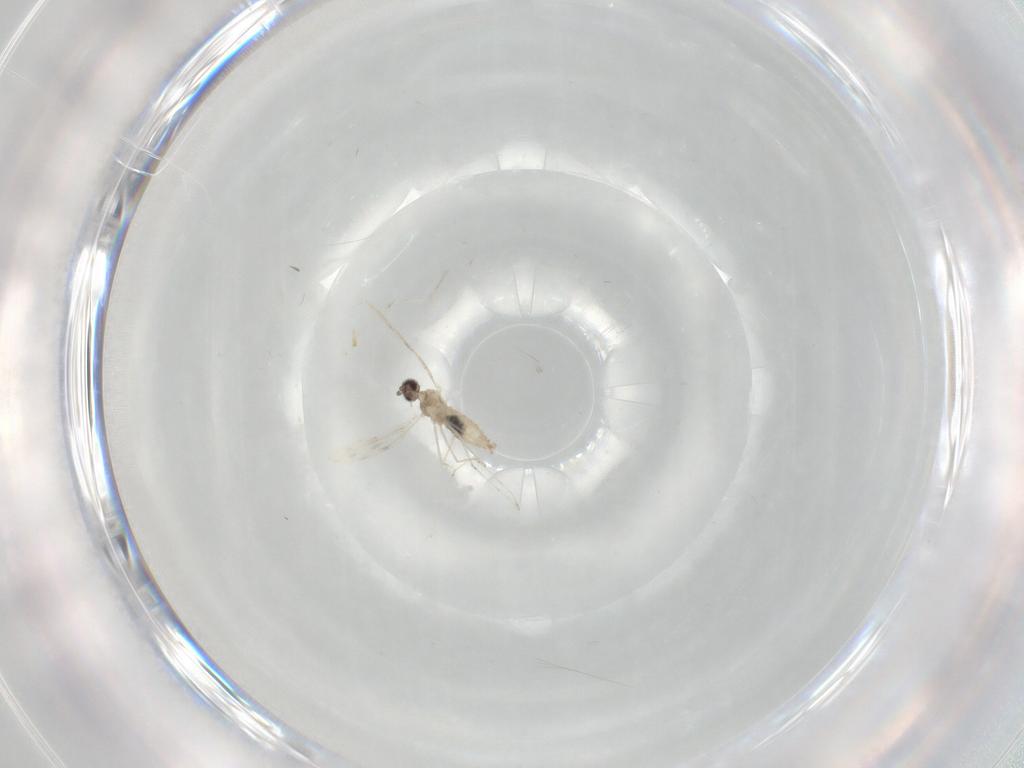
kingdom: Animalia
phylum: Arthropoda
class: Insecta
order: Diptera
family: Cecidomyiidae
